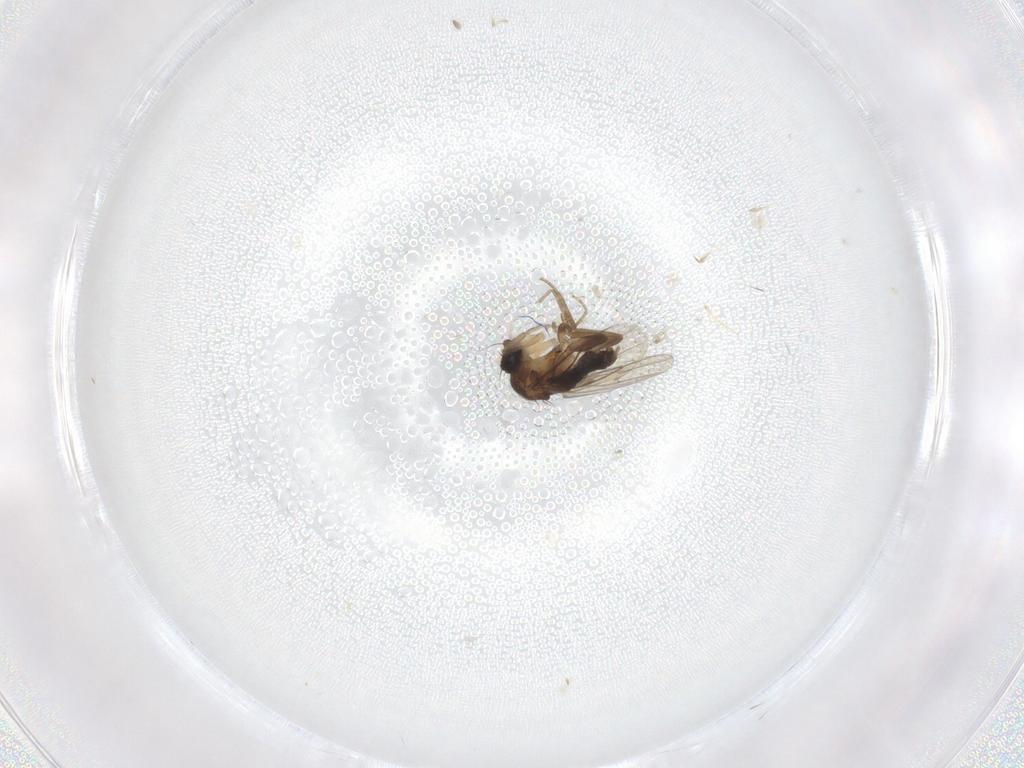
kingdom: Animalia
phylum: Arthropoda
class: Insecta
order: Diptera
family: Phoridae
